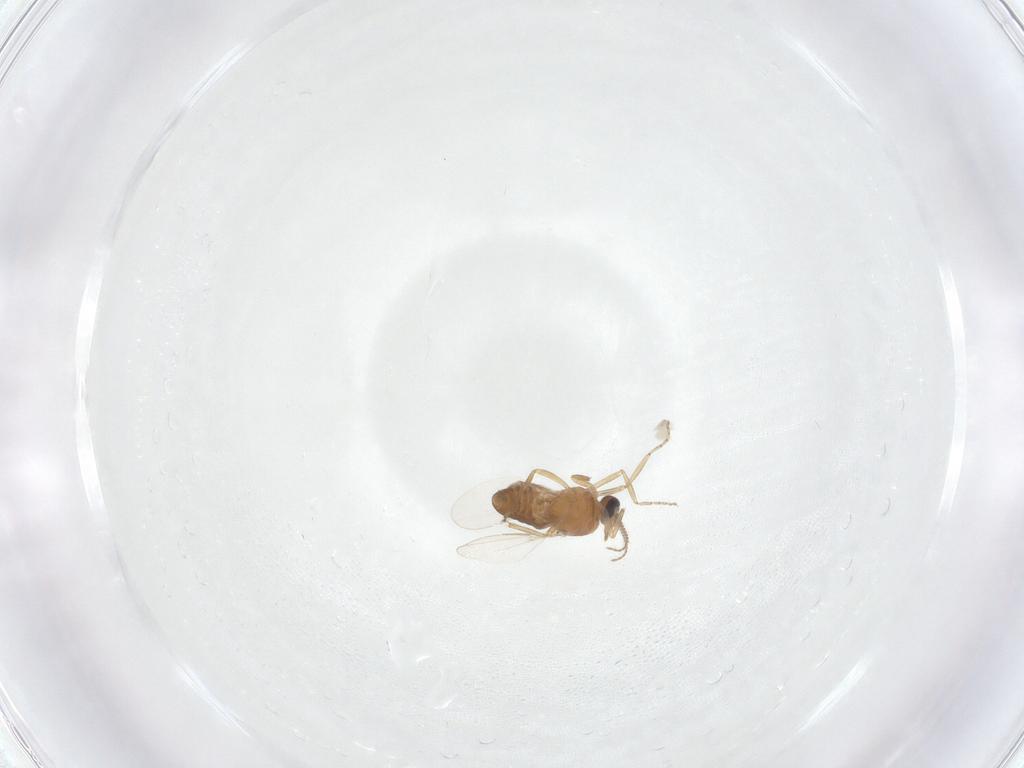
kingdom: Animalia
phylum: Arthropoda
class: Insecta
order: Diptera
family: Ceratopogonidae
